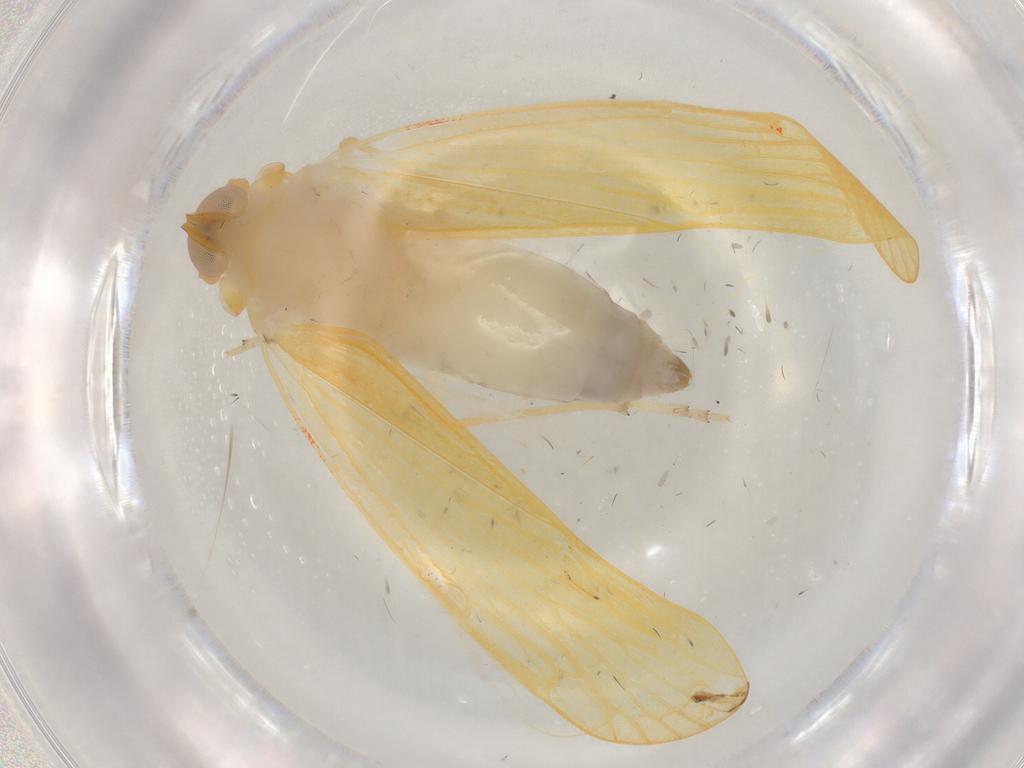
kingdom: Animalia
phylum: Arthropoda
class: Insecta
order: Hemiptera
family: Derbidae
